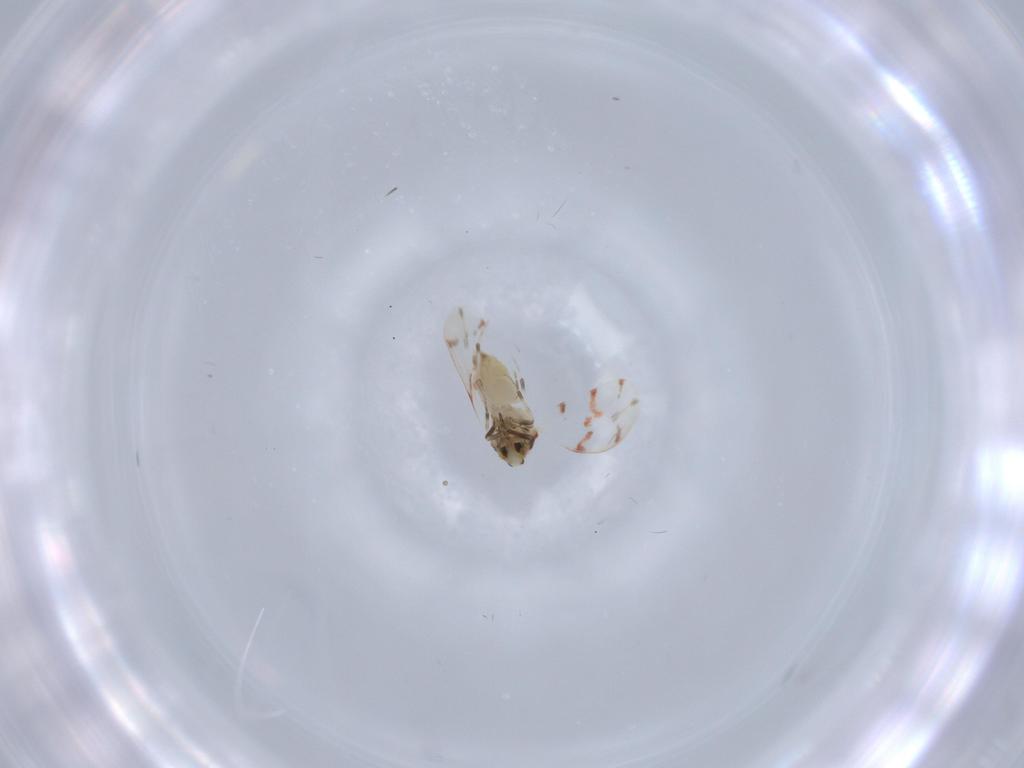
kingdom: Animalia
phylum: Arthropoda
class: Insecta
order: Hemiptera
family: Aleyrodidae
